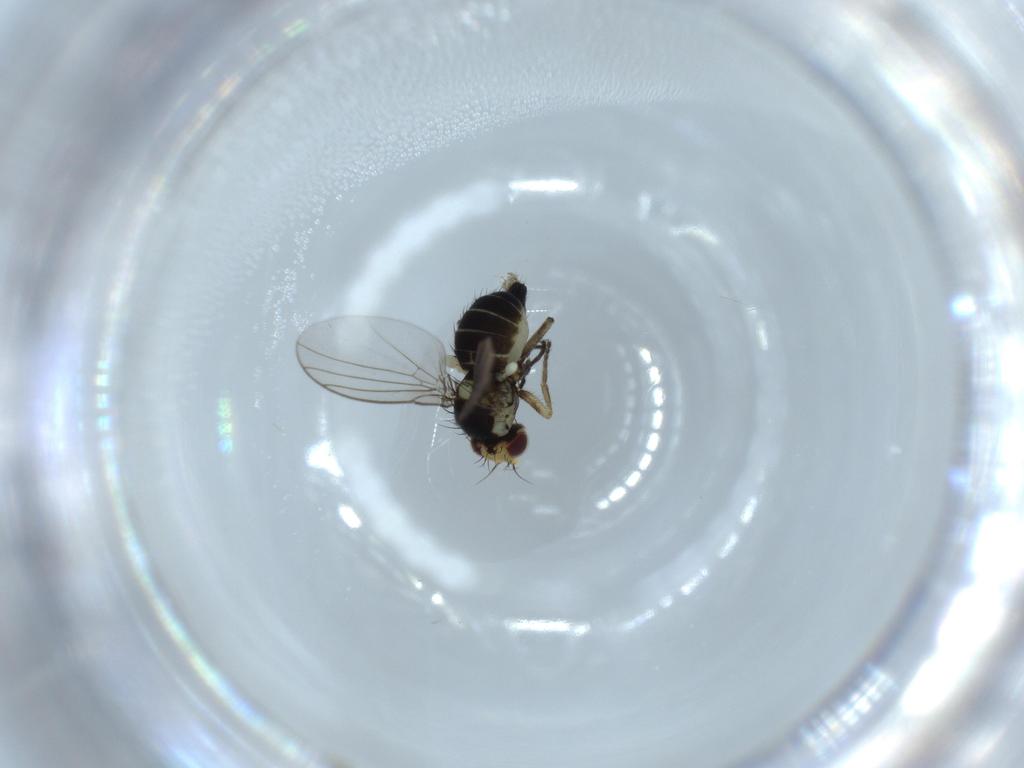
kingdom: Animalia
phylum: Arthropoda
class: Insecta
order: Diptera
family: Agromyzidae
